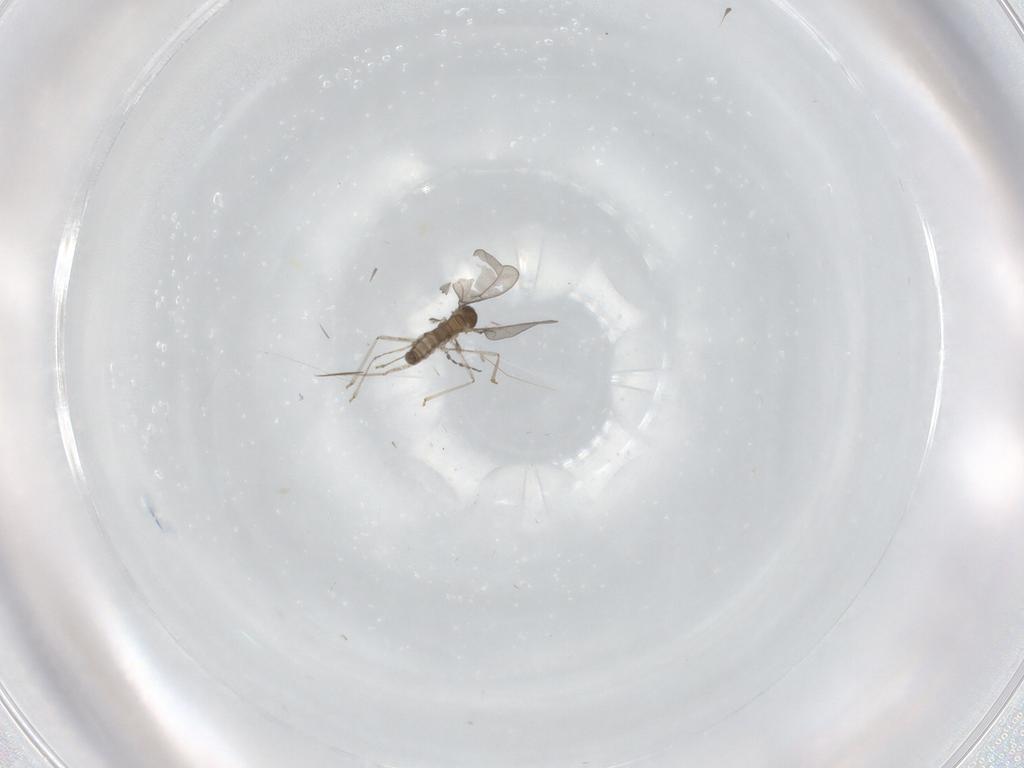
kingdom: Animalia
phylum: Arthropoda
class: Insecta
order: Diptera
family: Cecidomyiidae
